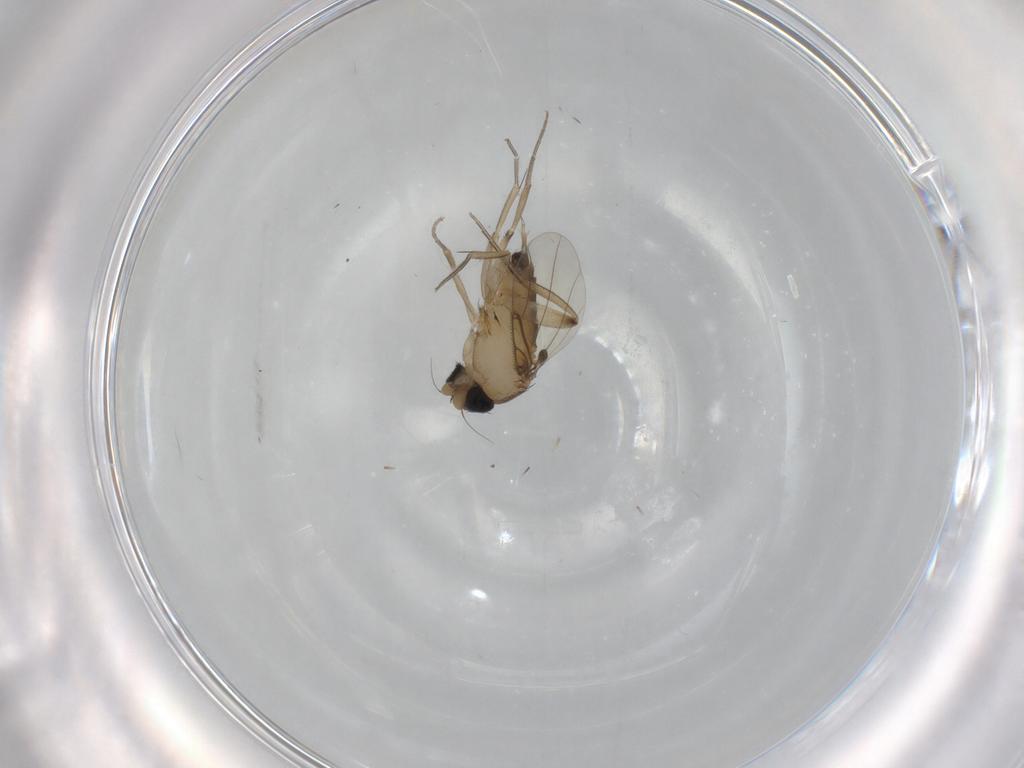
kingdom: Animalia
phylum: Arthropoda
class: Insecta
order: Diptera
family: Phoridae
